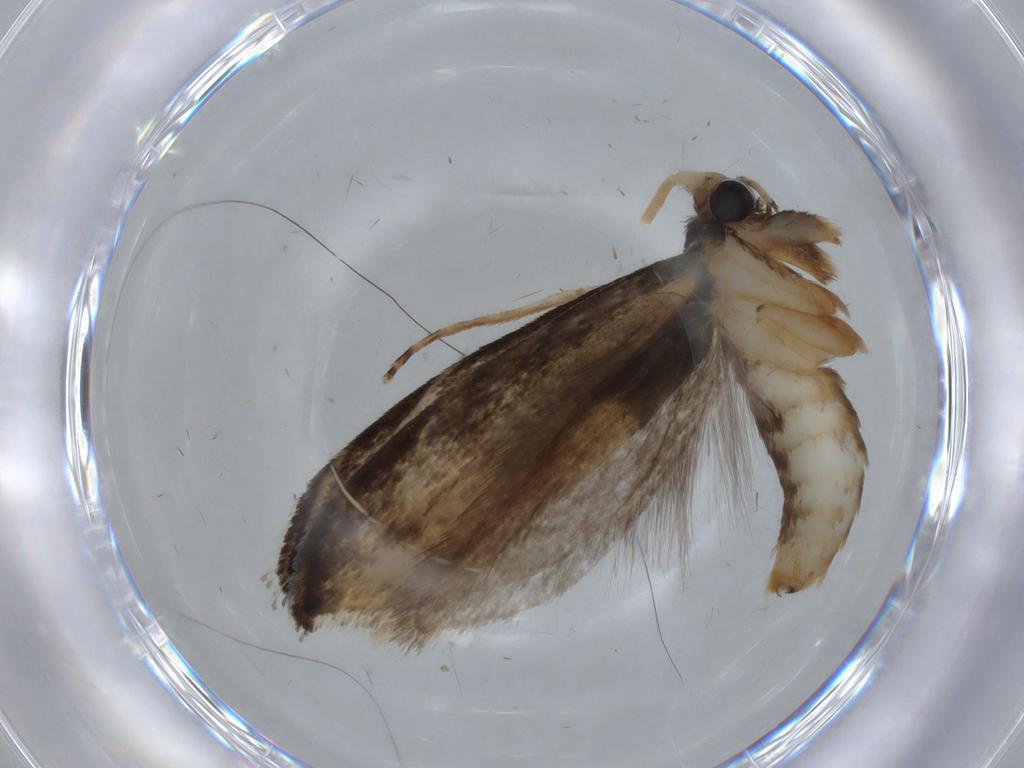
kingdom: Animalia
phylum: Arthropoda
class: Insecta
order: Lepidoptera
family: Tineidae
